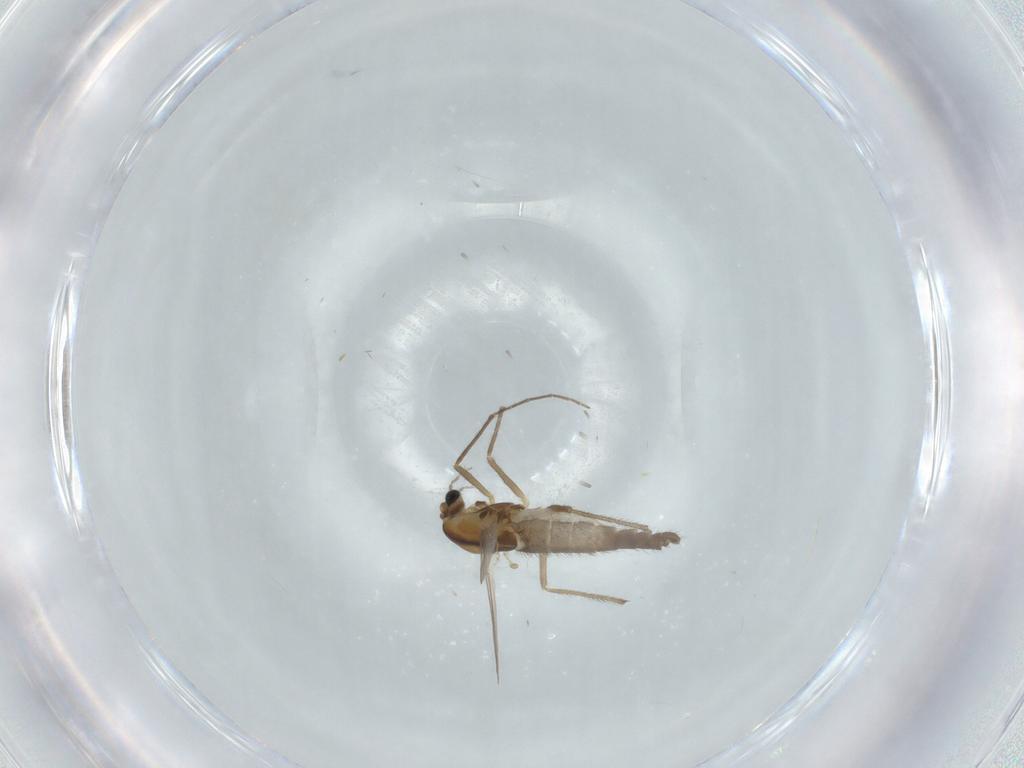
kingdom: Animalia
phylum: Arthropoda
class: Insecta
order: Diptera
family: Chironomidae
